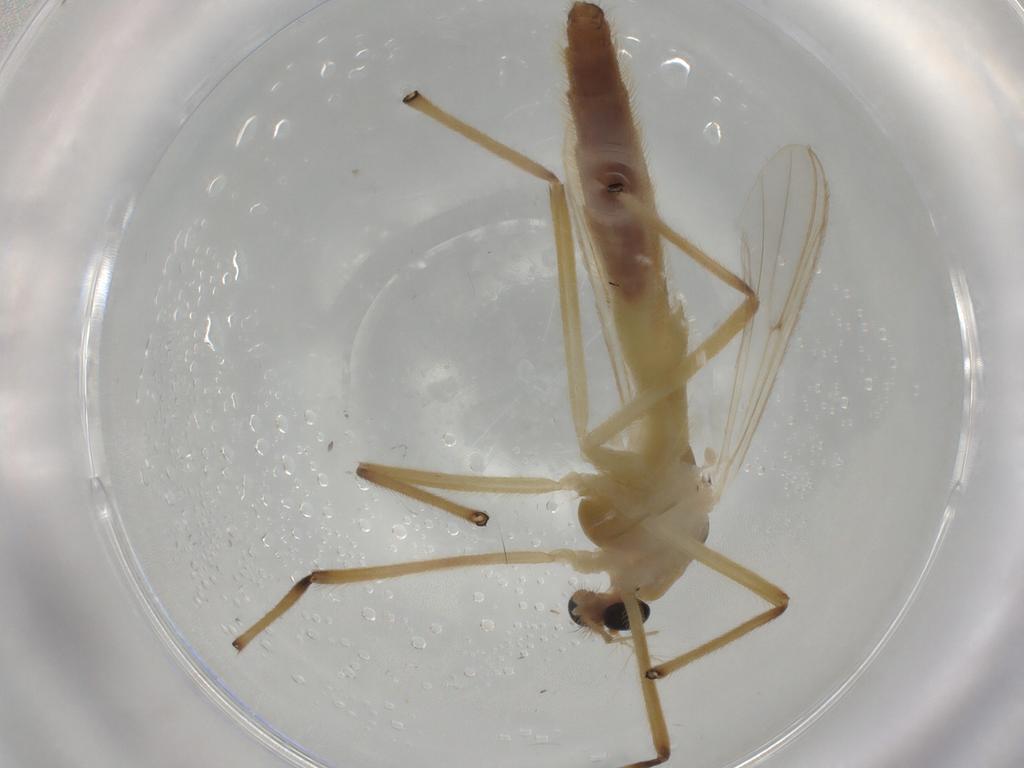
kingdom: Animalia
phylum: Arthropoda
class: Insecta
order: Diptera
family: Chironomidae
